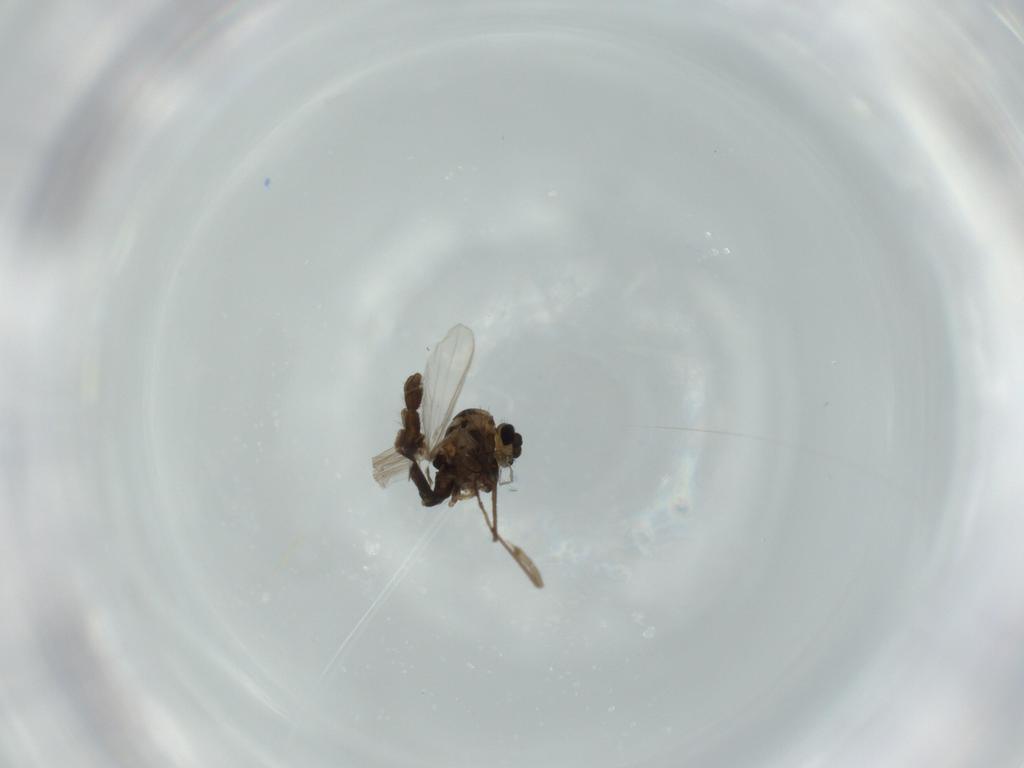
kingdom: Animalia
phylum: Arthropoda
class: Insecta
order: Diptera
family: Chironomidae
